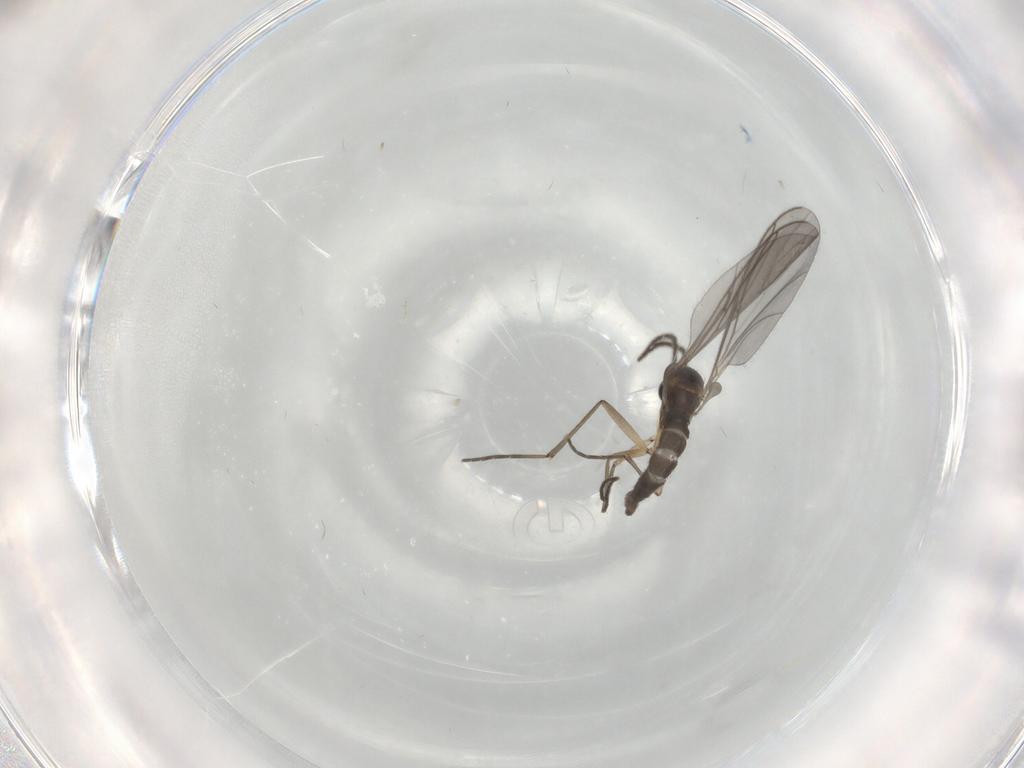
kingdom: Animalia
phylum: Arthropoda
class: Insecta
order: Diptera
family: Sciaridae
